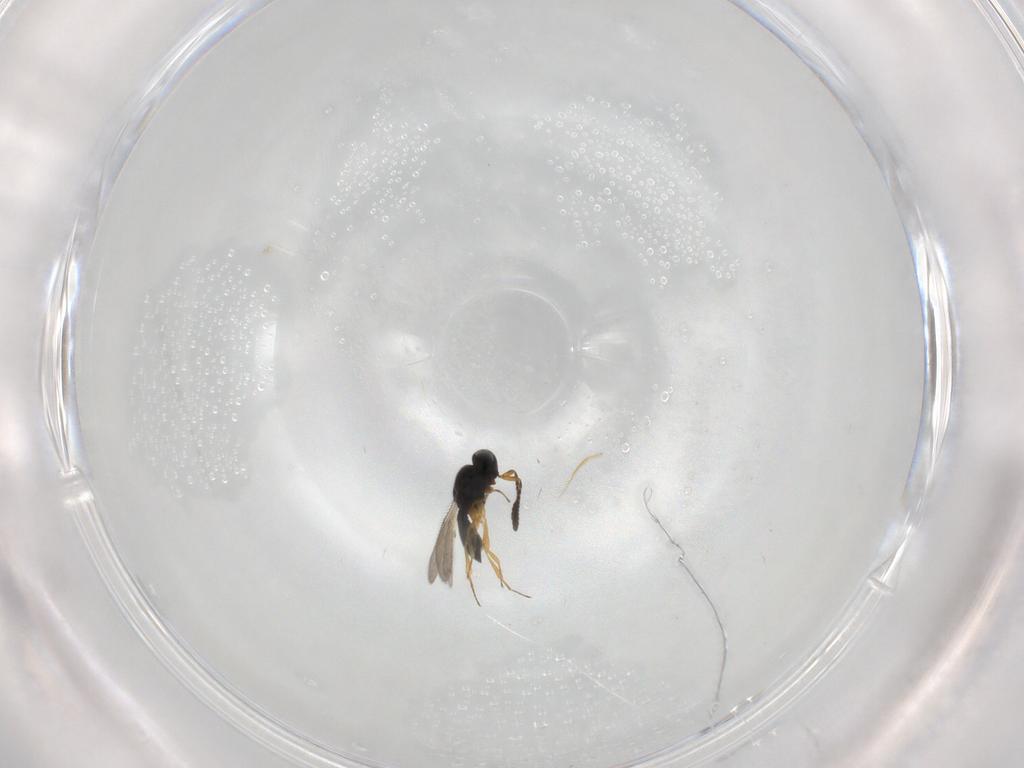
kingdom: Animalia
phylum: Arthropoda
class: Insecta
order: Hymenoptera
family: Scelionidae
